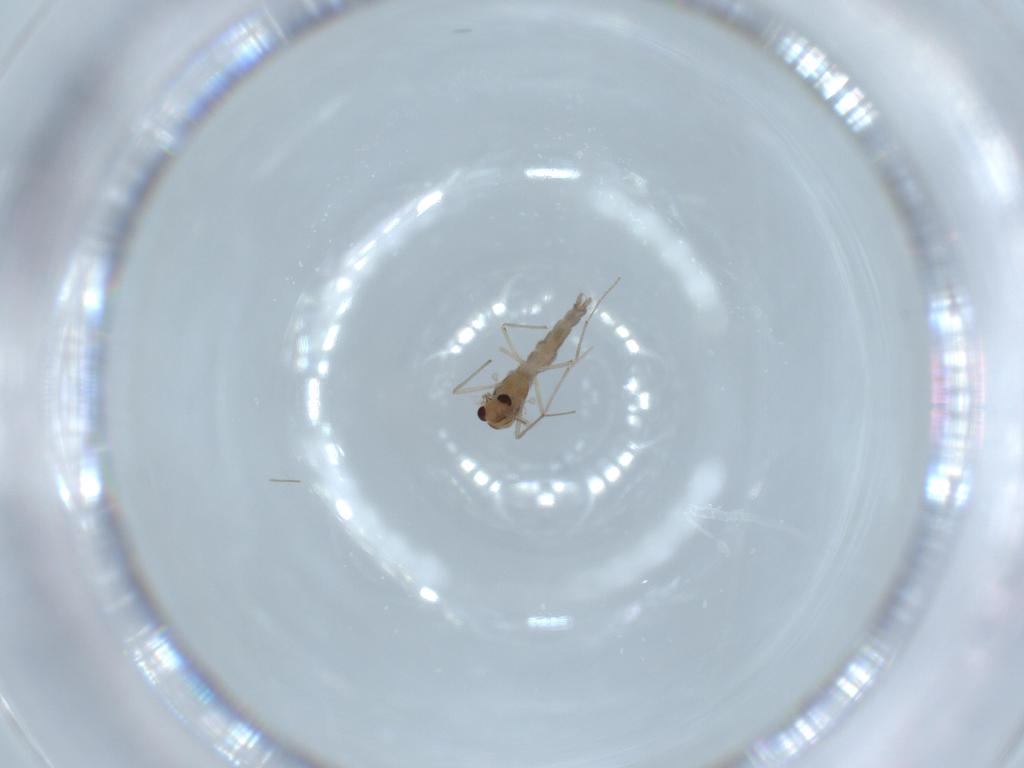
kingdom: Animalia
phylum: Arthropoda
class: Insecta
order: Diptera
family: Chironomidae
